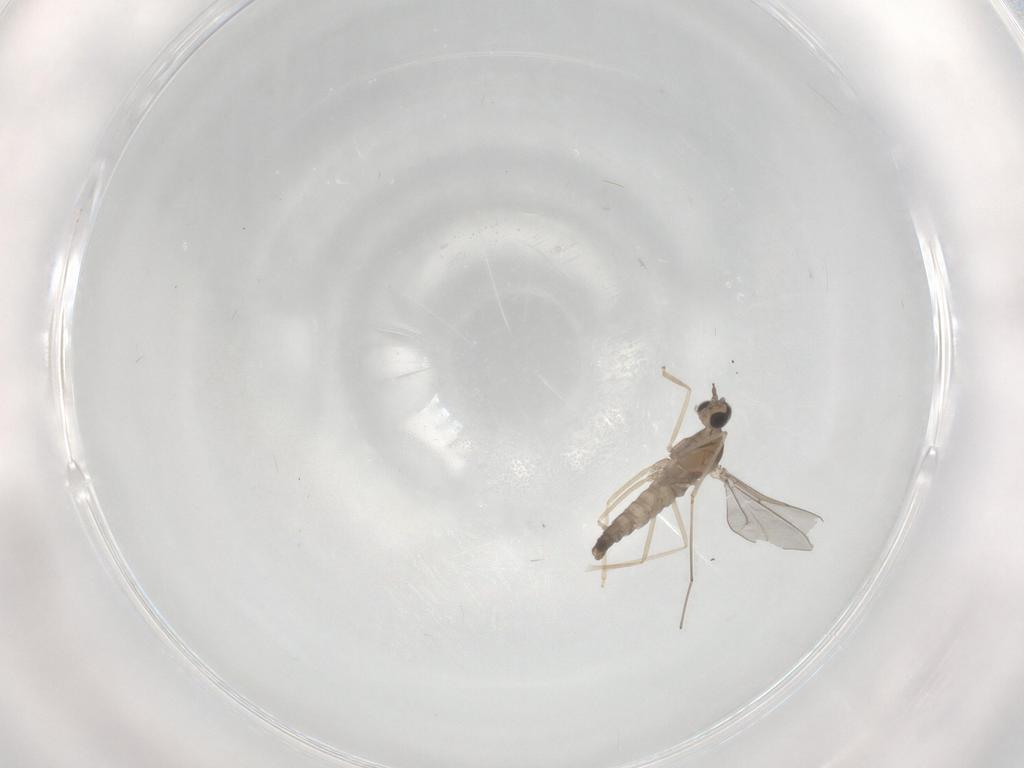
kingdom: Animalia
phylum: Arthropoda
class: Insecta
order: Diptera
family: Cecidomyiidae
